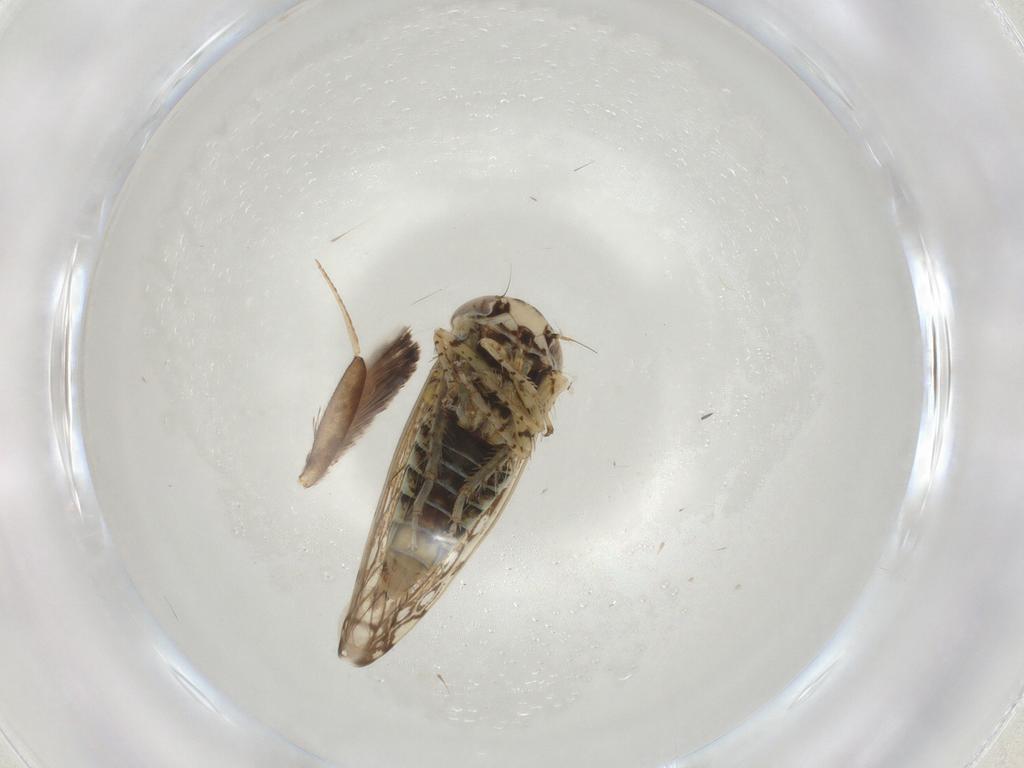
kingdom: Animalia
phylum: Arthropoda
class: Insecta
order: Hemiptera
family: Cicadellidae
